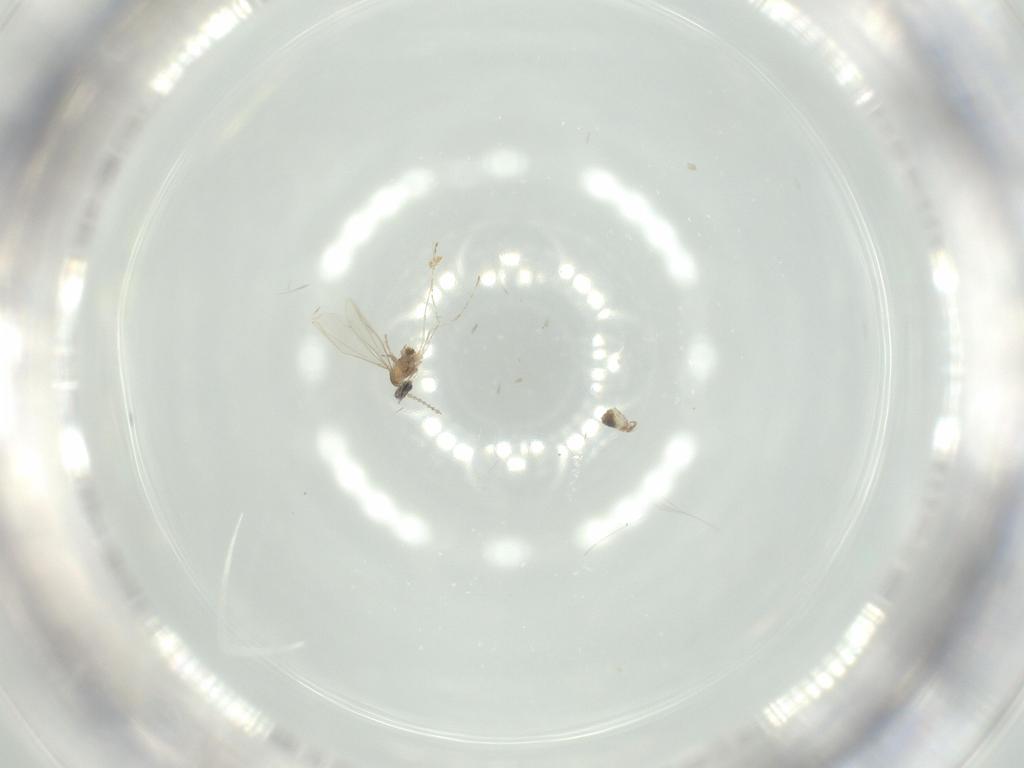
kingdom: Animalia
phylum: Arthropoda
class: Insecta
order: Diptera
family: Cecidomyiidae
